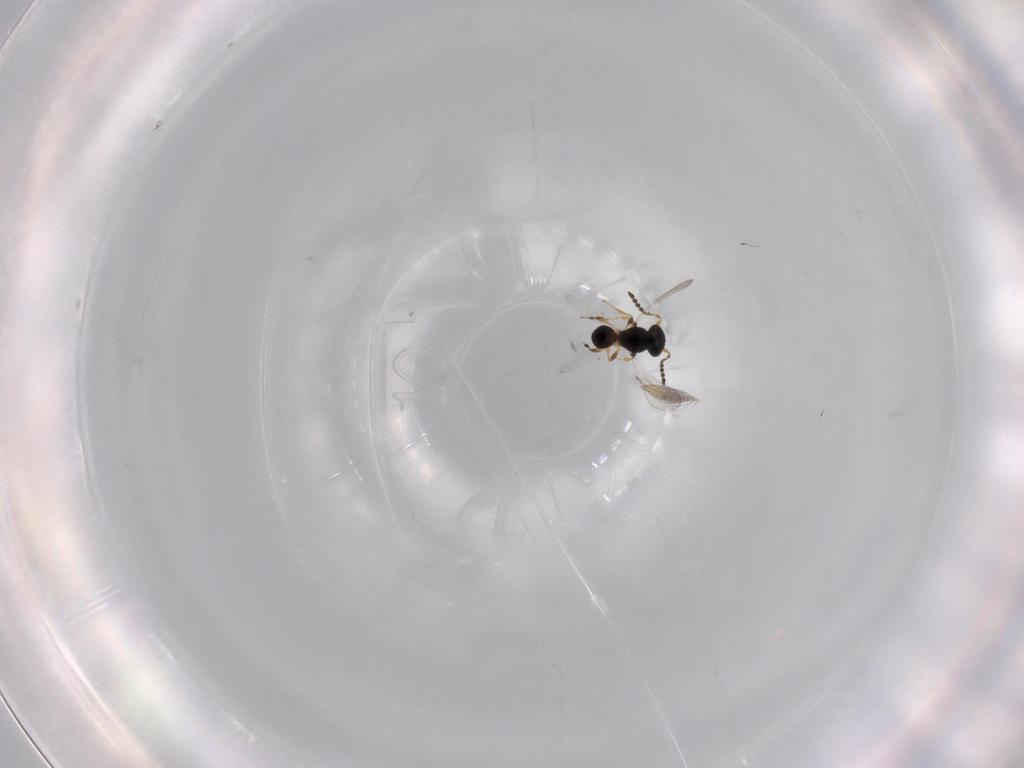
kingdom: Animalia
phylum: Arthropoda
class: Insecta
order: Hymenoptera
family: Platygastridae
